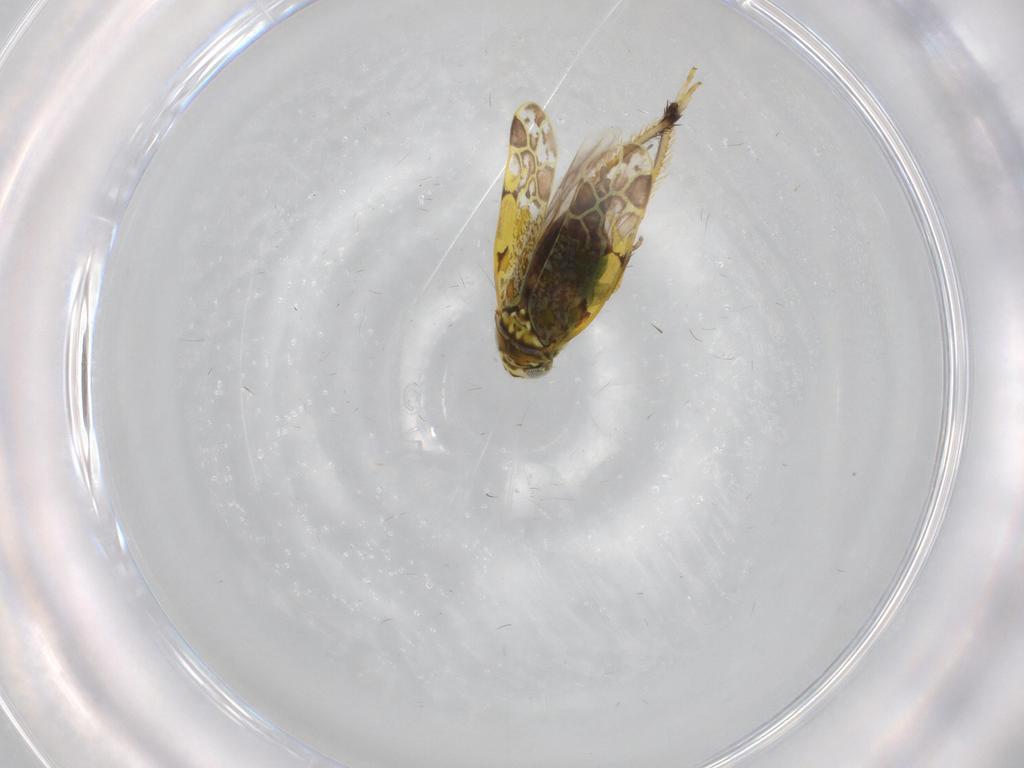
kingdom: Animalia
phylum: Arthropoda
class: Insecta
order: Hemiptera
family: Cicadellidae
